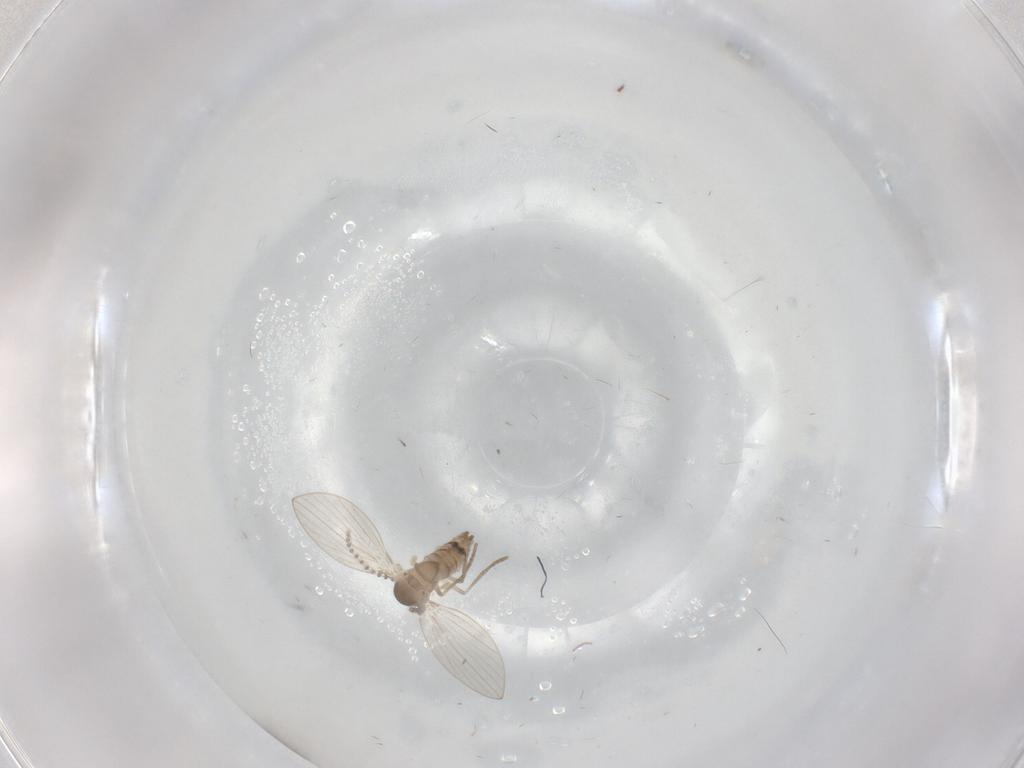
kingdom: Animalia
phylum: Arthropoda
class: Insecta
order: Diptera
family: Psychodidae
